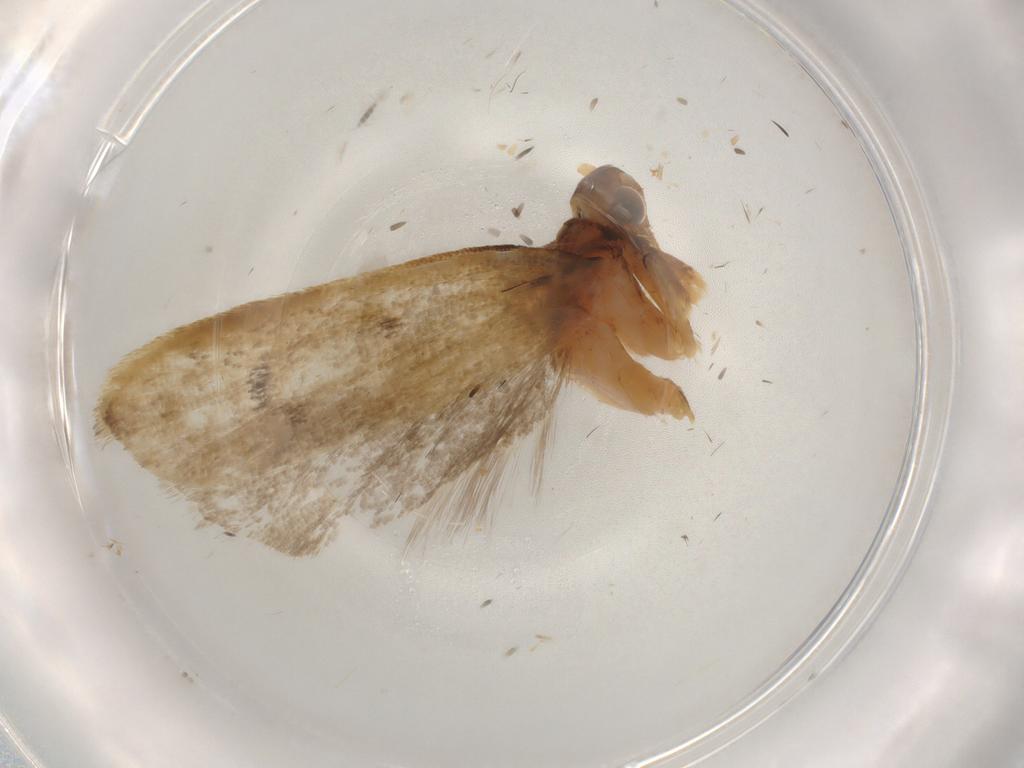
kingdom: Animalia
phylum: Arthropoda
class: Insecta
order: Lepidoptera
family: Lecithoceridae
